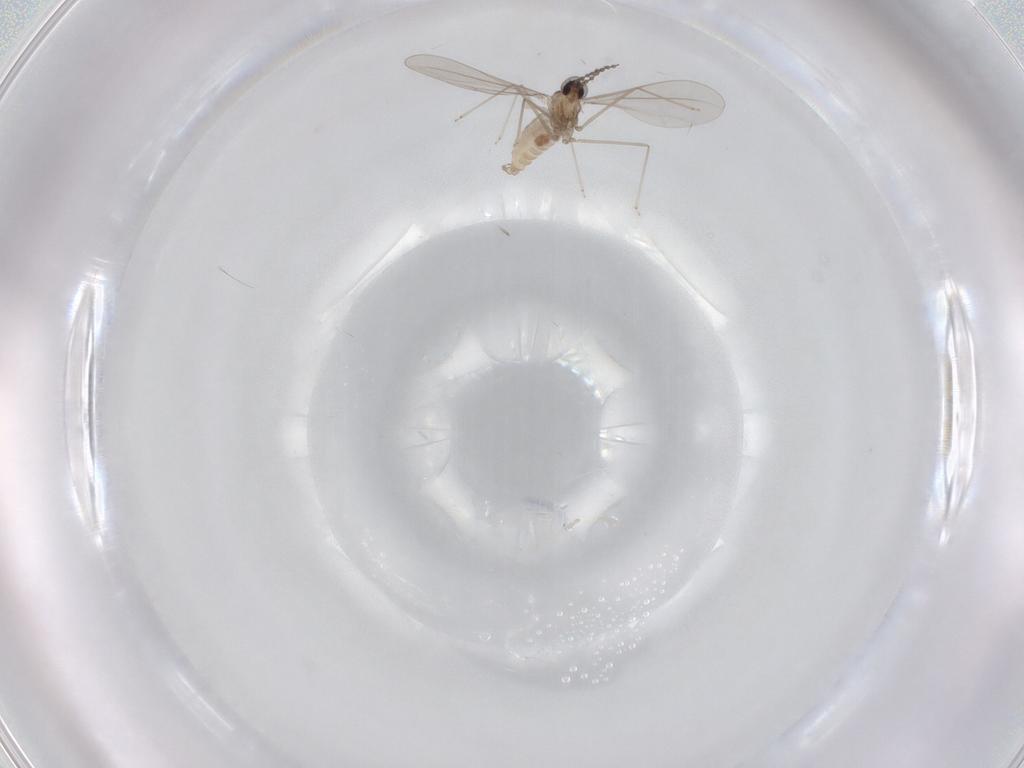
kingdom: Animalia
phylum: Arthropoda
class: Insecta
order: Diptera
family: Cecidomyiidae
